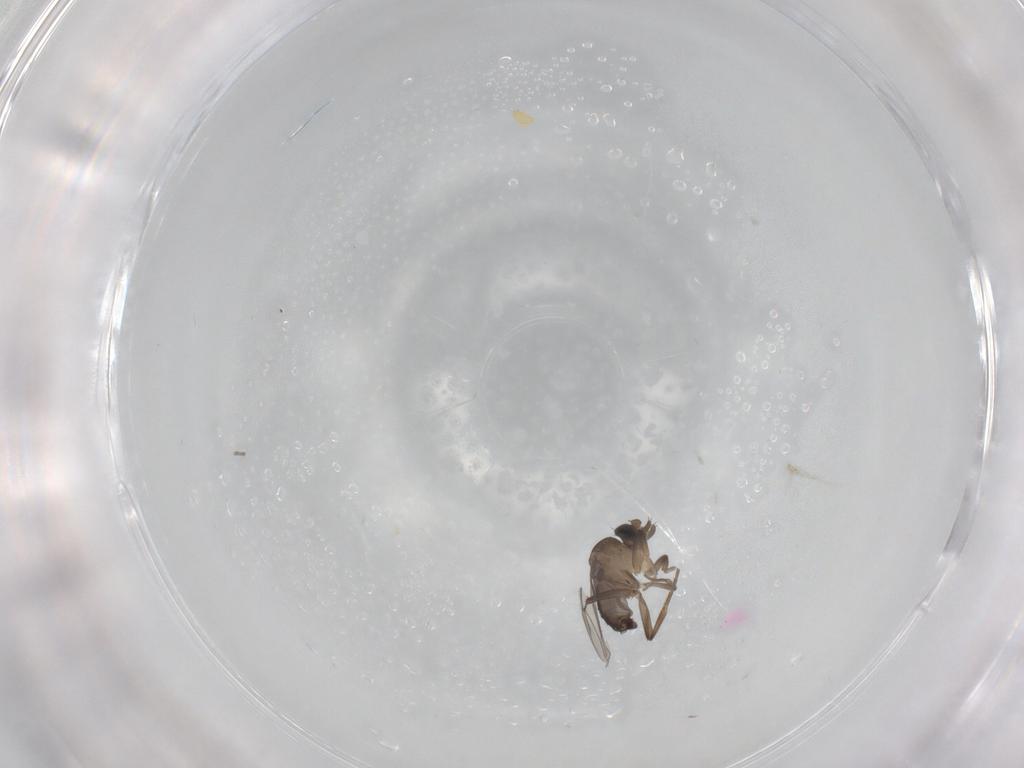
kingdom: Animalia
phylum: Arthropoda
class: Insecta
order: Diptera
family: Phoridae
